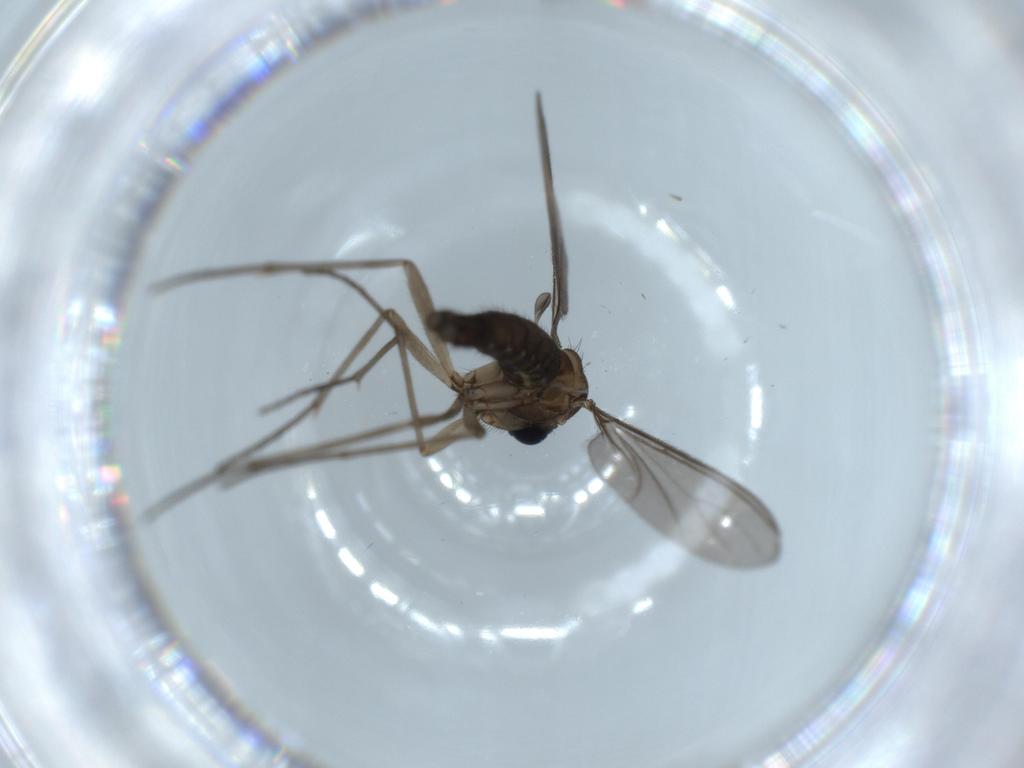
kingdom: Animalia
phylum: Arthropoda
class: Insecta
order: Diptera
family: Sciaridae
